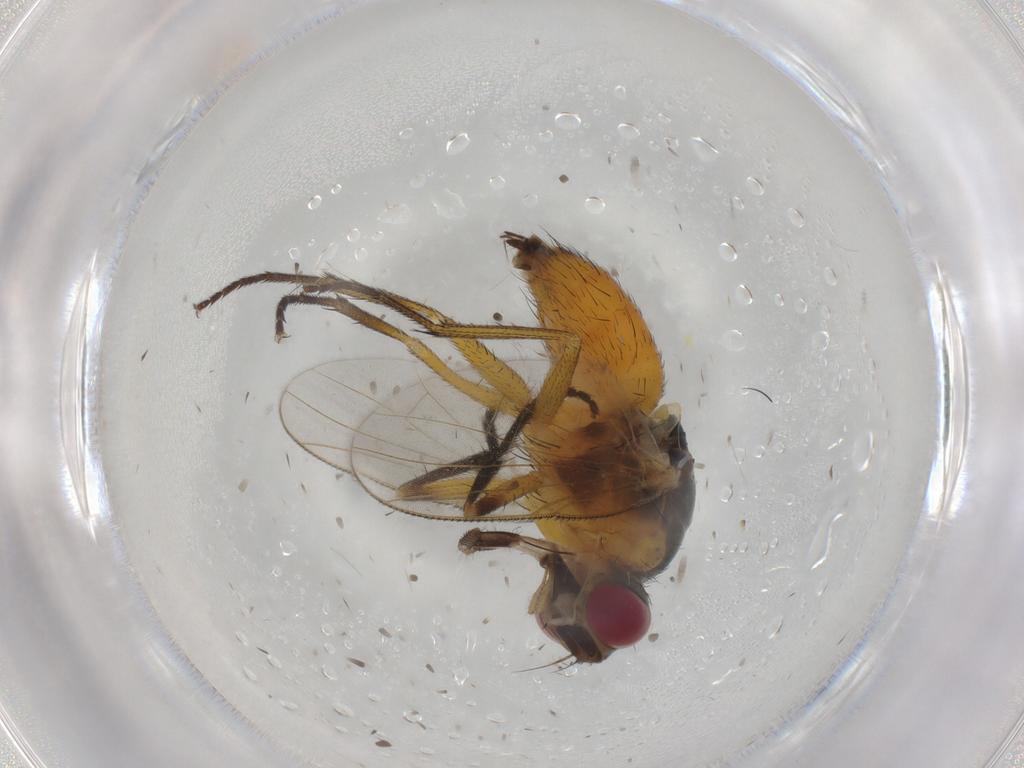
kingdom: Animalia
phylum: Arthropoda
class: Insecta
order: Diptera
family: Muscidae
